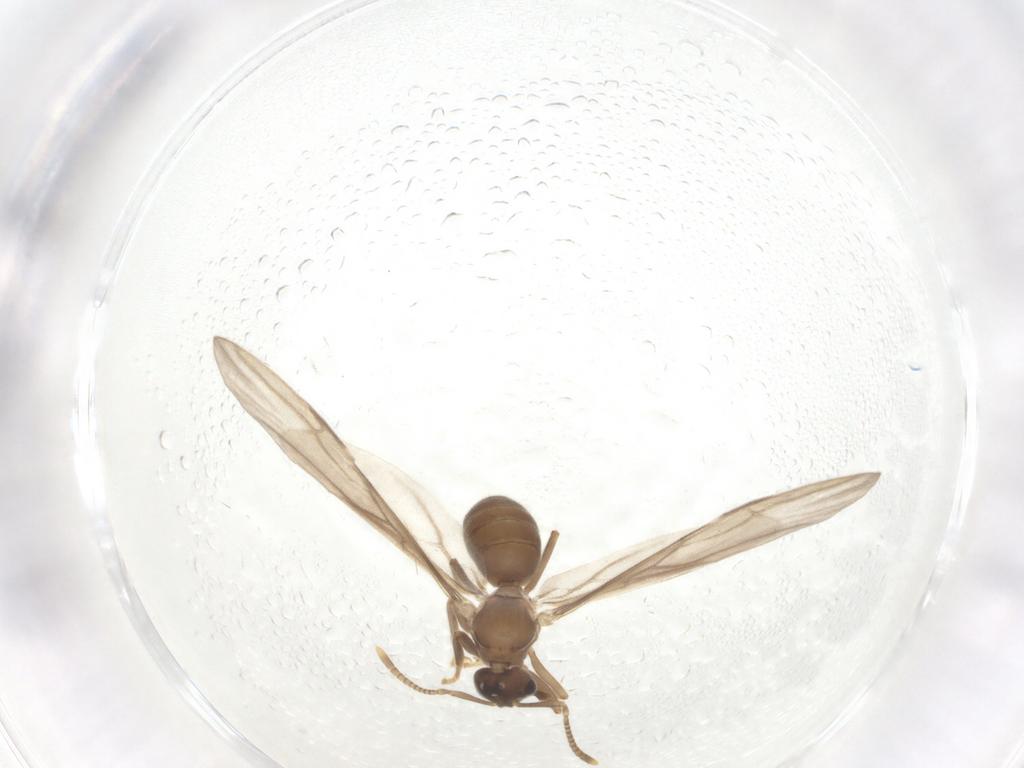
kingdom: Animalia
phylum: Arthropoda
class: Insecta
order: Hymenoptera
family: Formicidae
